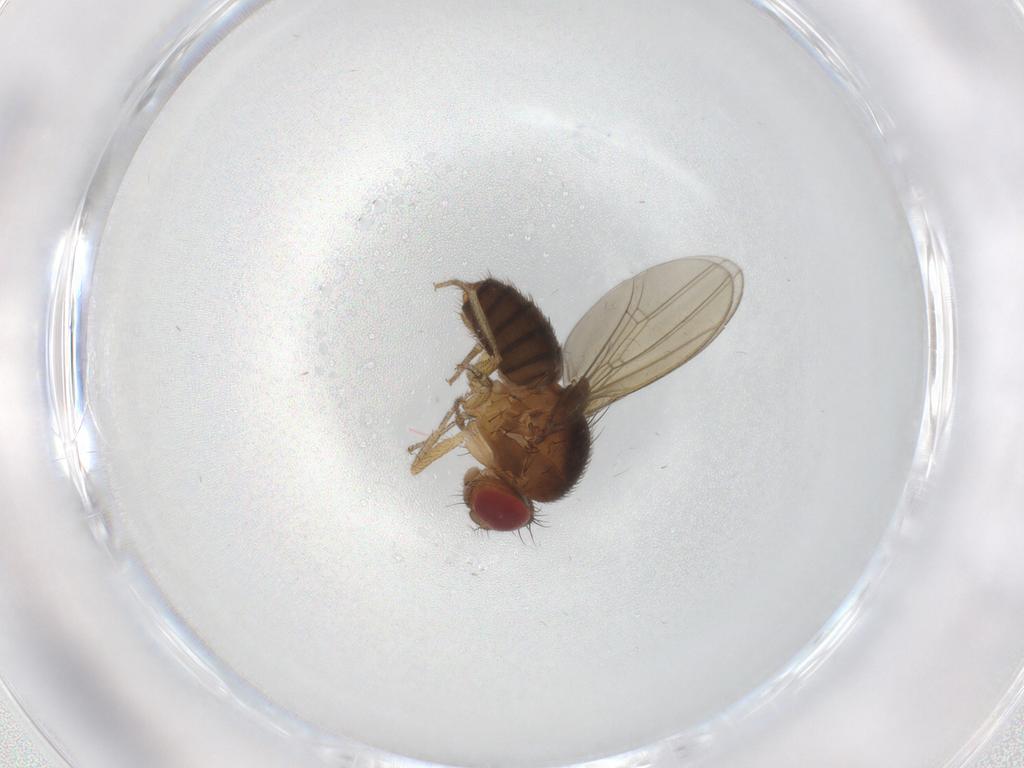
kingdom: Animalia
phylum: Arthropoda
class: Insecta
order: Diptera
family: Drosophilidae
